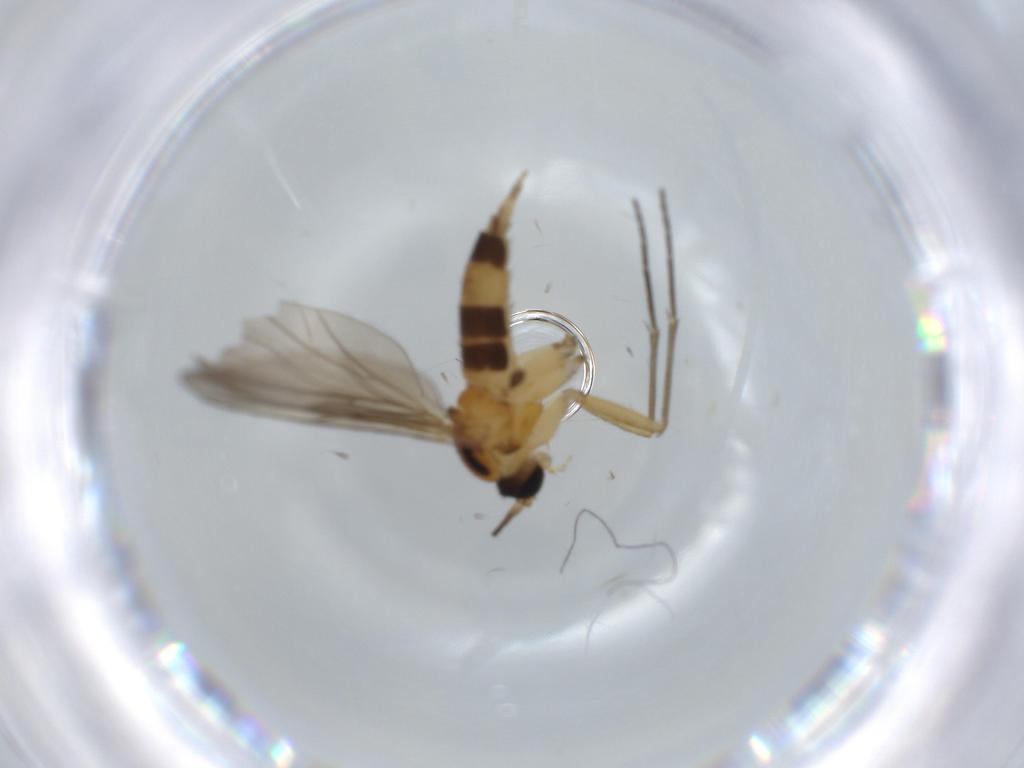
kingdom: Animalia
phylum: Arthropoda
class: Insecta
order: Diptera
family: Sciaridae
